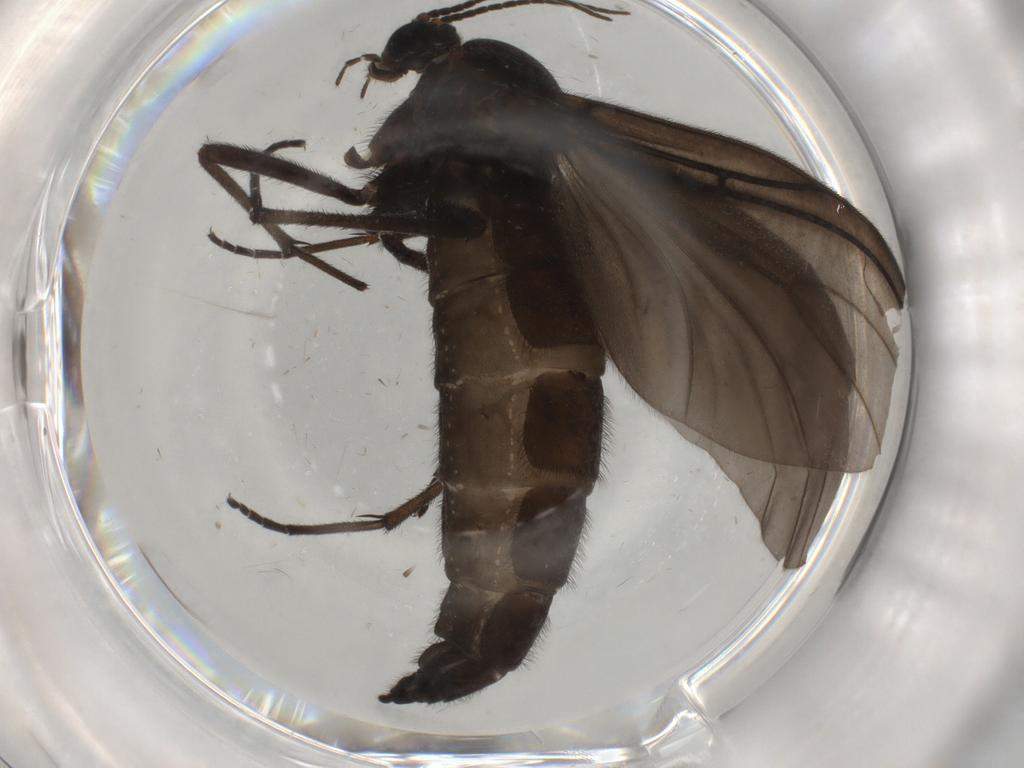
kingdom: Animalia
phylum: Arthropoda
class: Insecta
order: Diptera
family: Sciaridae
